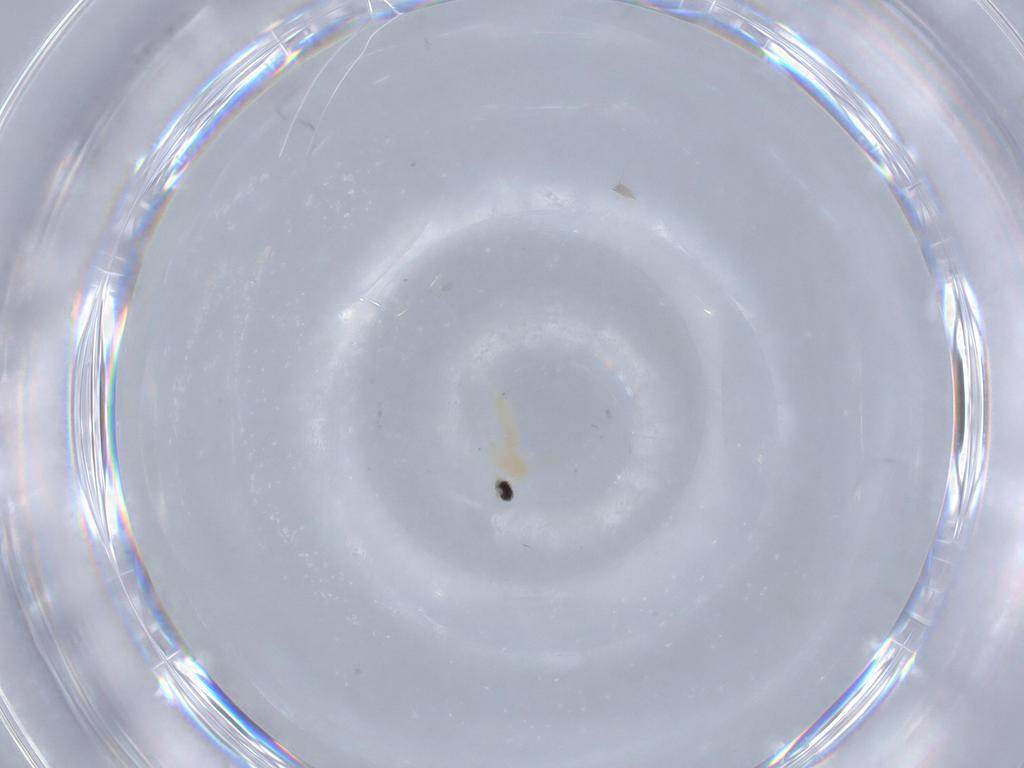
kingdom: Animalia
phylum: Arthropoda
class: Insecta
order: Diptera
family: Cecidomyiidae
